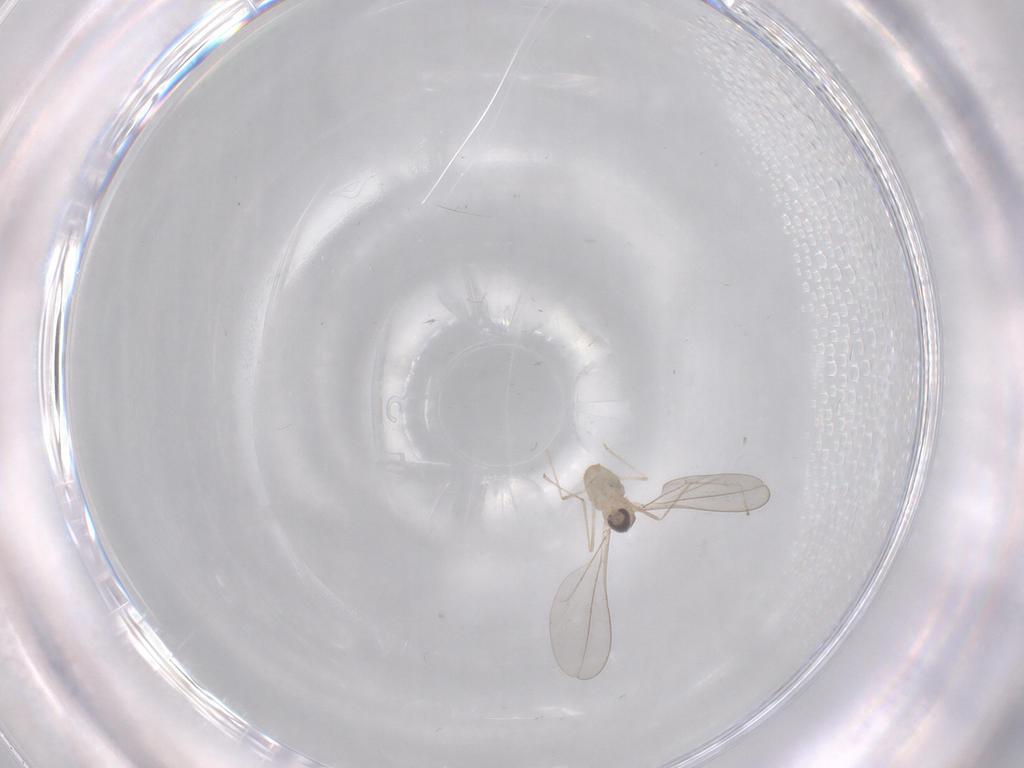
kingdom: Animalia
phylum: Arthropoda
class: Insecta
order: Diptera
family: Cecidomyiidae
